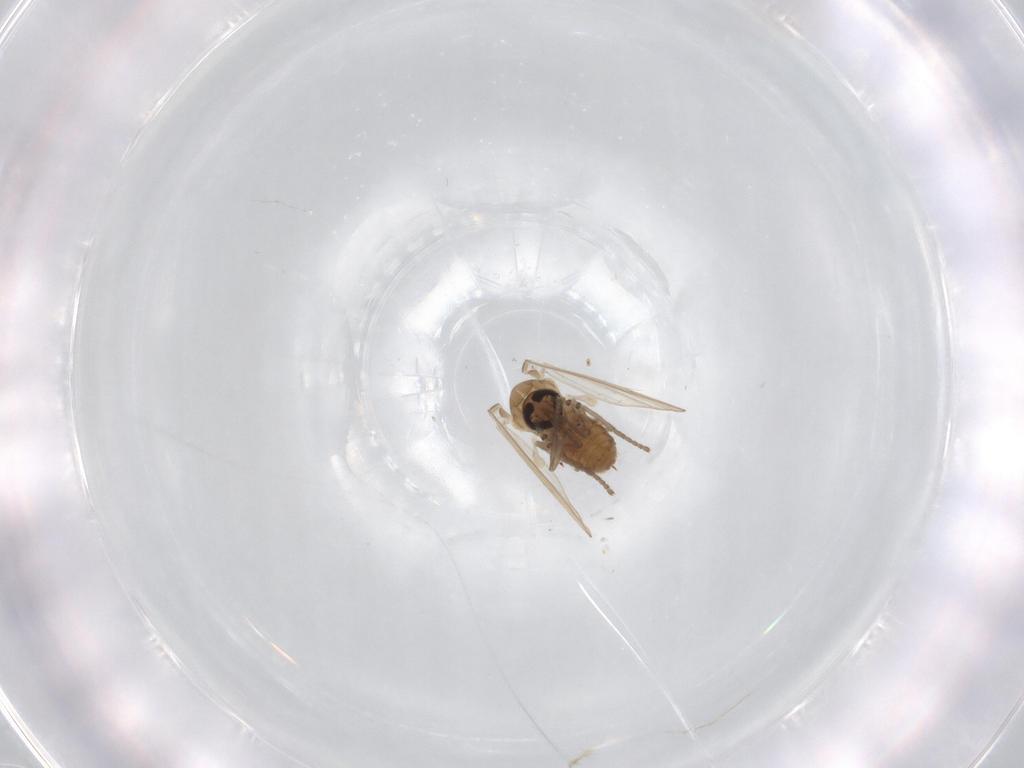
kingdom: Animalia
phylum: Arthropoda
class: Insecta
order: Diptera
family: Psychodidae
